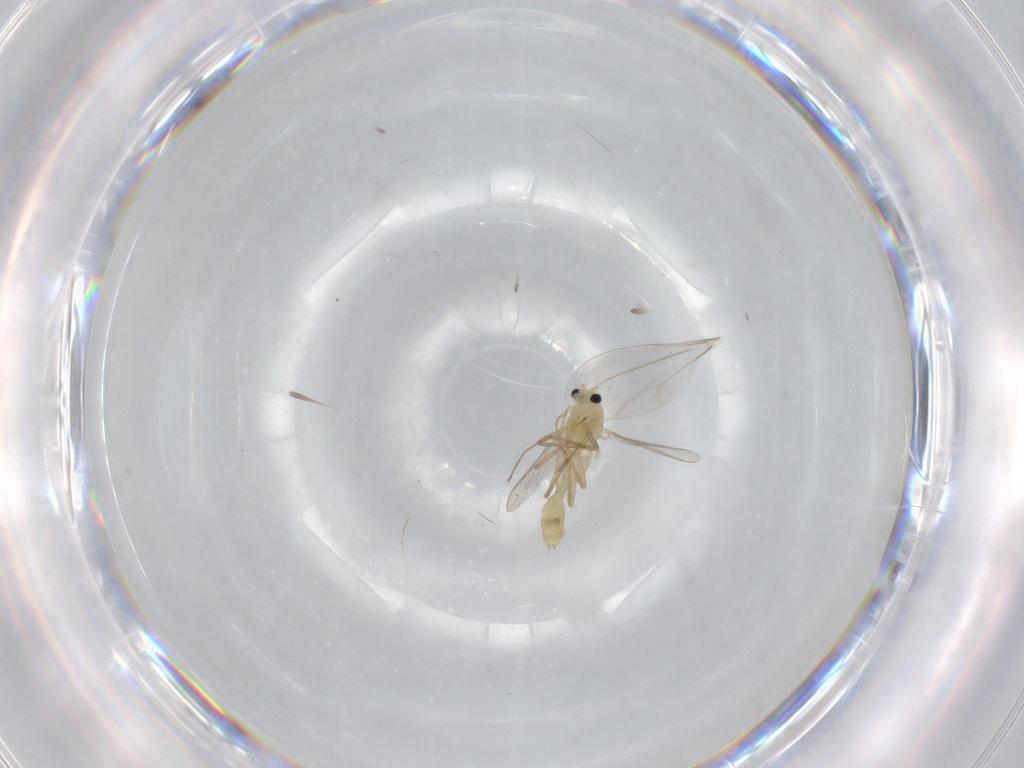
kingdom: Animalia
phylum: Arthropoda
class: Insecta
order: Diptera
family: Chironomidae
